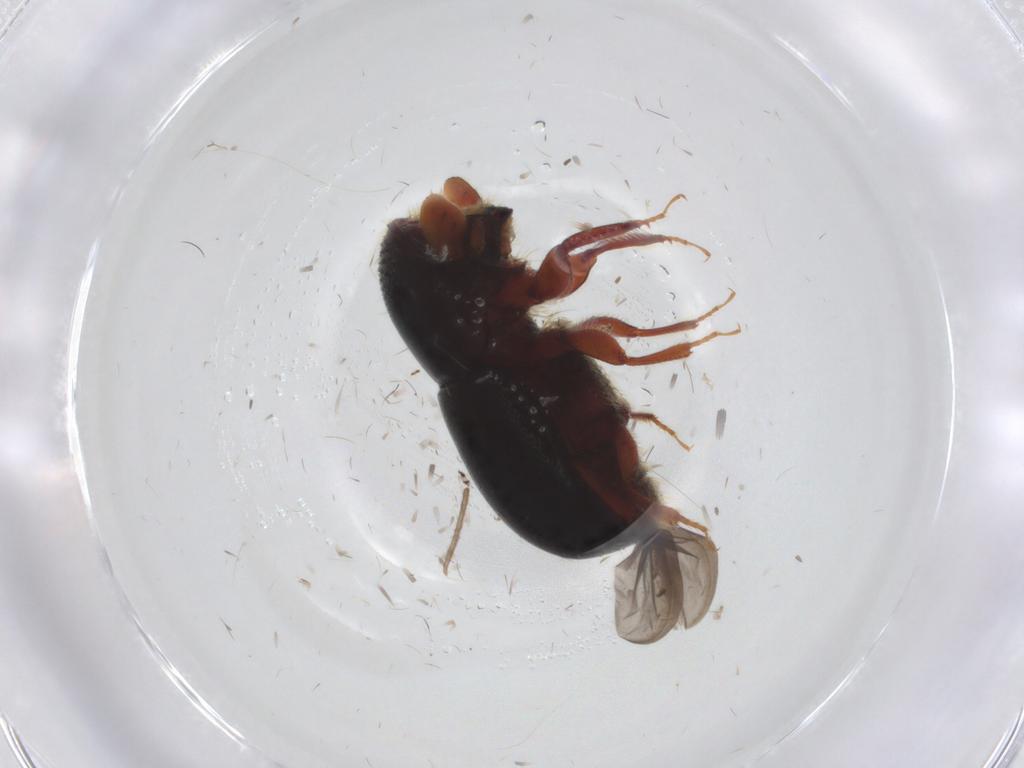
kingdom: Animalia
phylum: Arthropoda
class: Insecta
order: Coleoptera
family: Curculionidae
